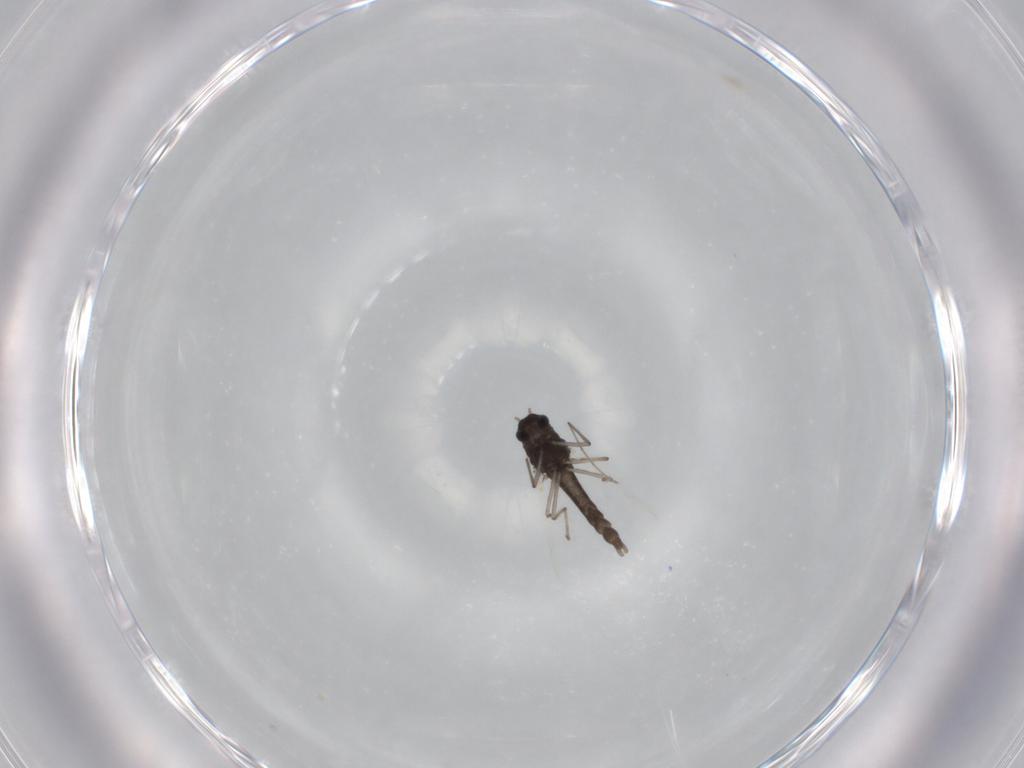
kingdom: Animalia
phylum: Arthropoda
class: Insecta
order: Diptera
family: Chironomidae
